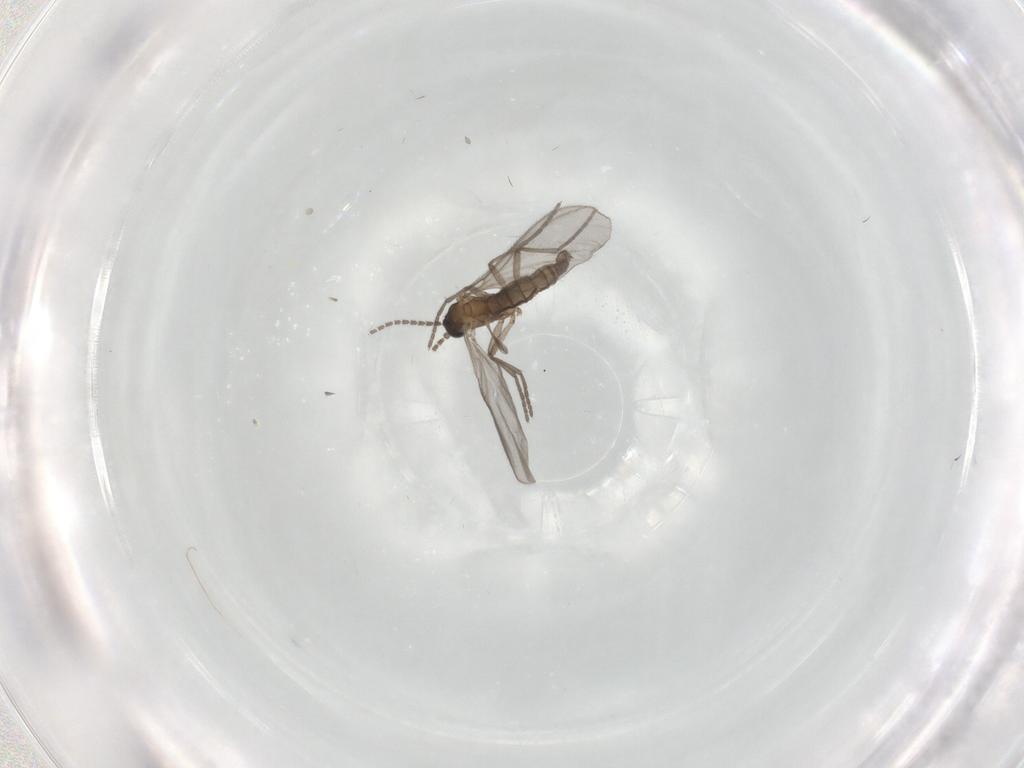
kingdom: Animalia
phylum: Arthropoda
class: Insecta
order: Diptera
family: Sciaridae
